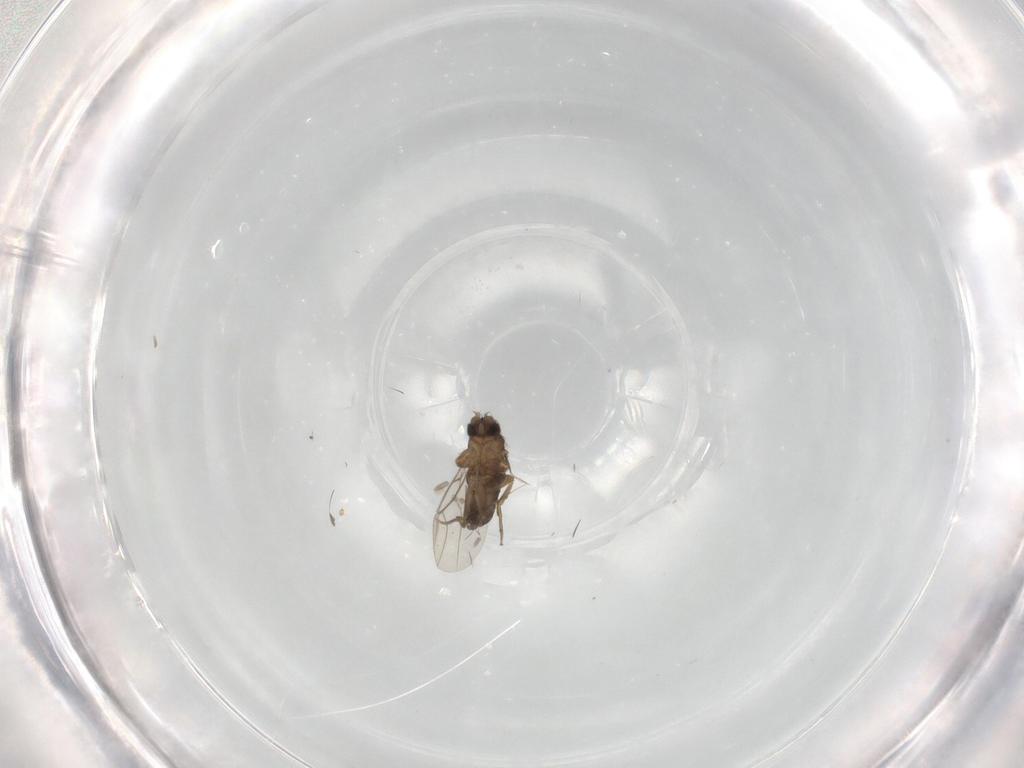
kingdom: Animalia
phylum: Arthropoda
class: Insecta
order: Diptera
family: Phoridae
